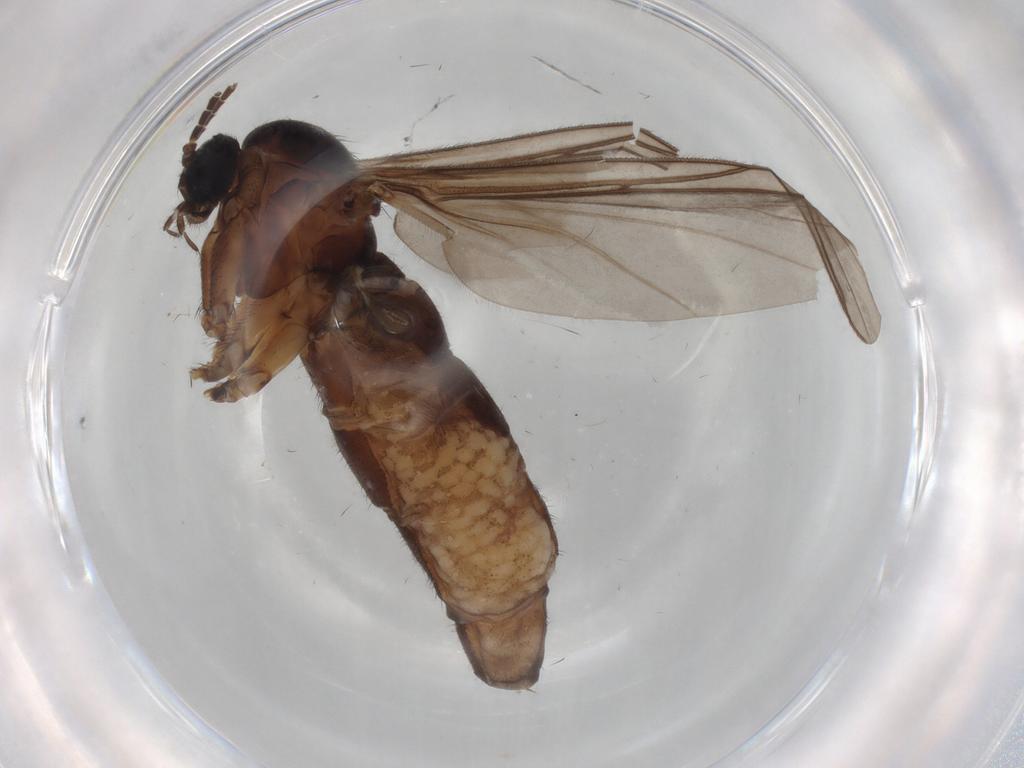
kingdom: Animalia
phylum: Arthropoda
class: Insecta
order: Diptera
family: Sciaridae
